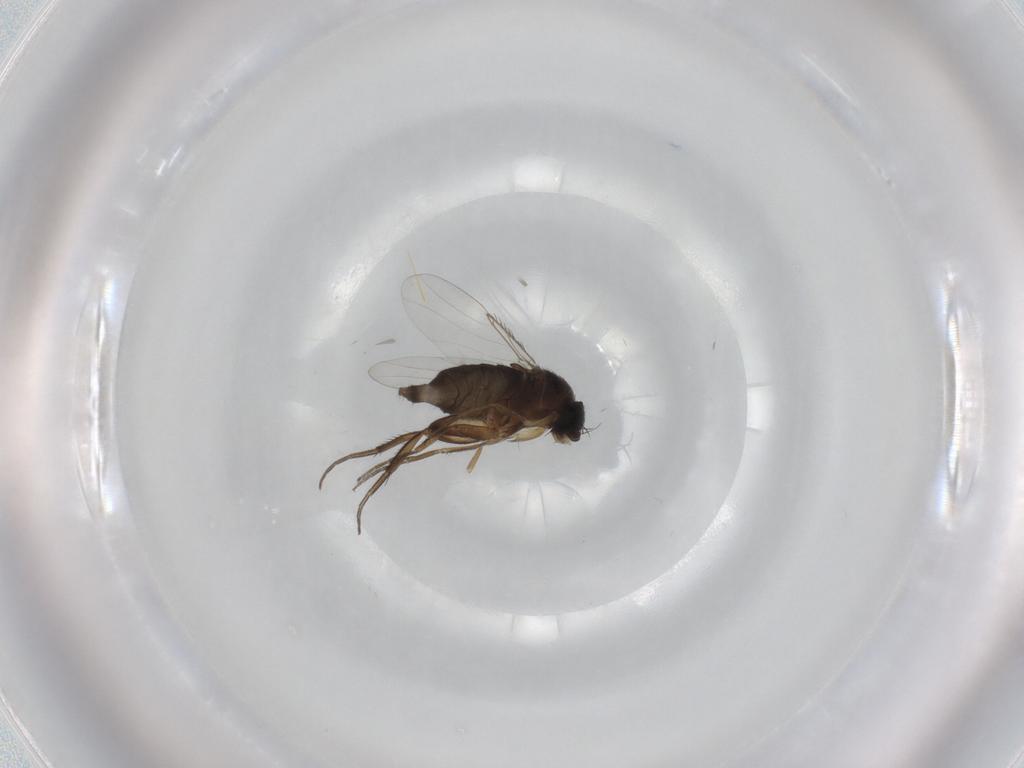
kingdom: Animalia
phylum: Arthropoda
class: Insecta
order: Diptera
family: Phoridae
